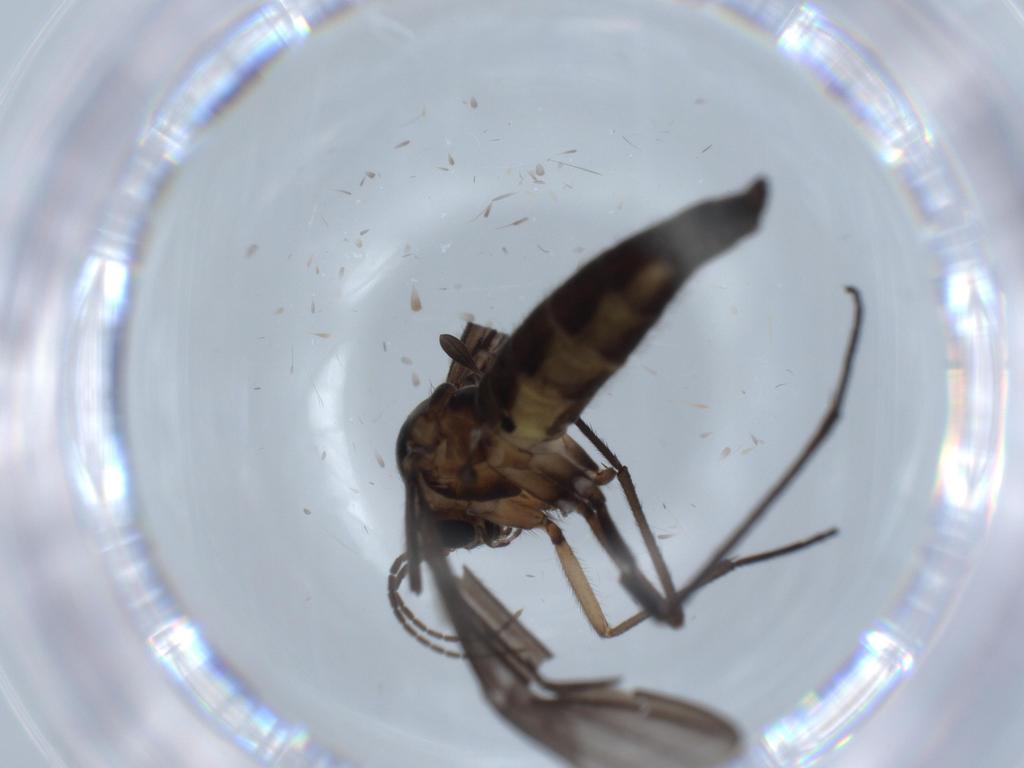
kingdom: Animalia
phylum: Arthropoda
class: Insecta
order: Diptera
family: Sciaridae
